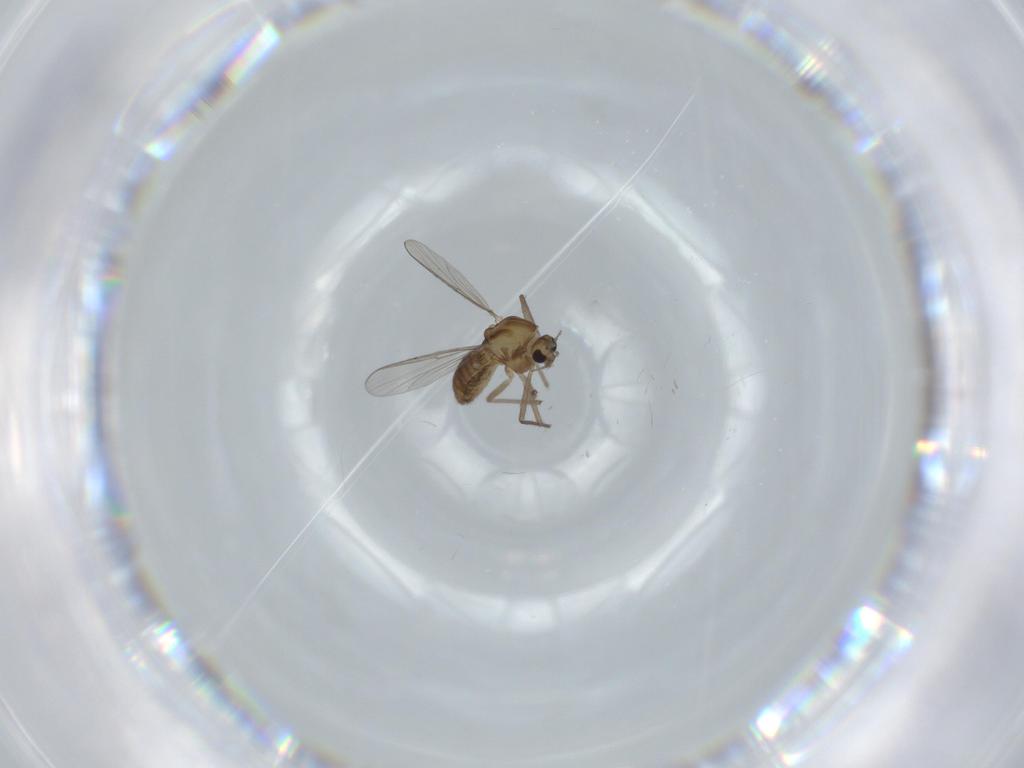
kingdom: Animalia
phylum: Arthropoda
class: Insecta
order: Diptera
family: Chironomidae
